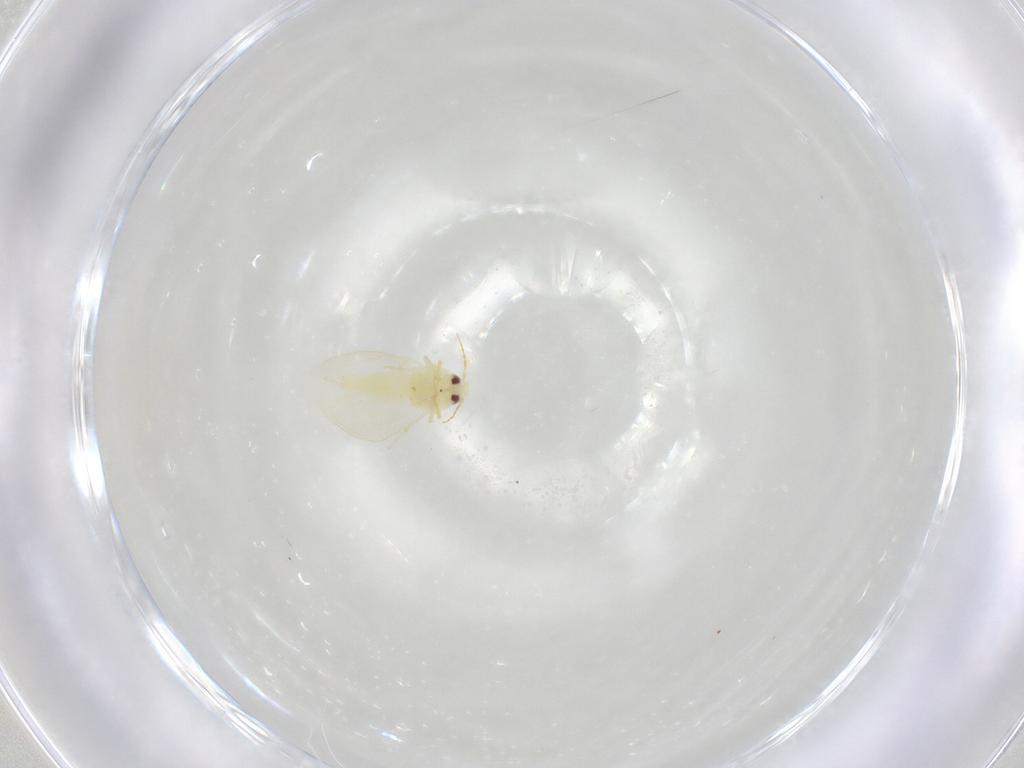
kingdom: Animalia
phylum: Arthropoda
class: Insecta
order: Hemiptera
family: Aleyrodidae
